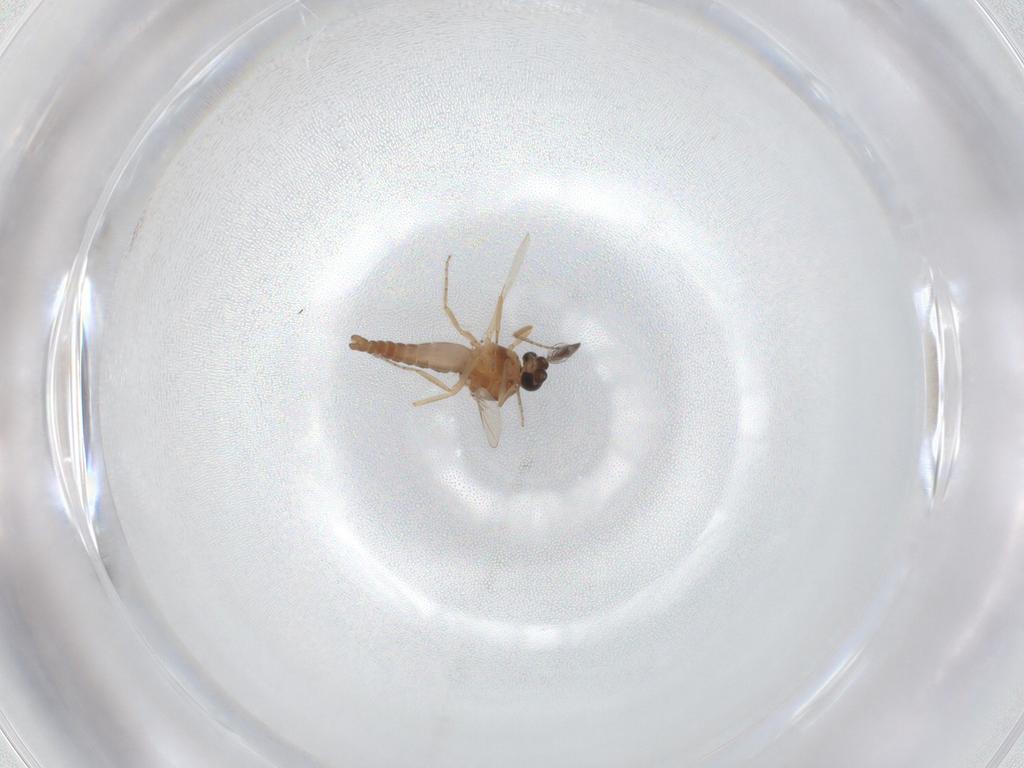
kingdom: Animalia
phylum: Arthropoda
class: Insecta
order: Diptera
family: Ceratopogonidae
